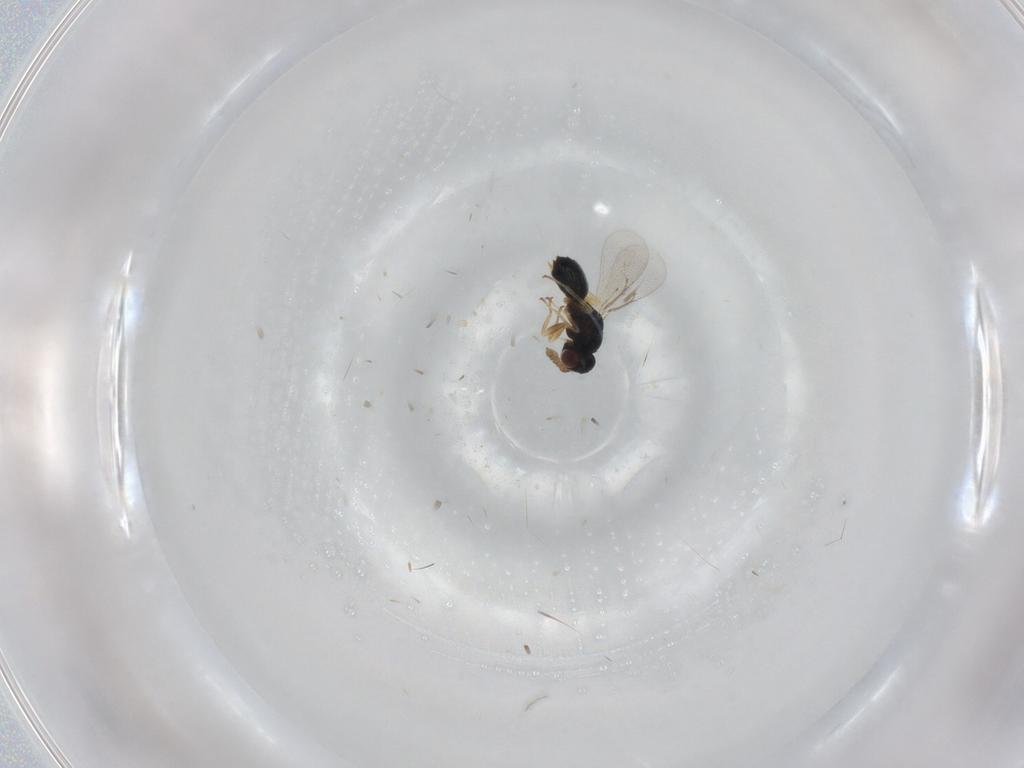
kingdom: Animalia
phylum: Arthropoda
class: Insecta
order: Hymenoptera
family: Eulophidae
